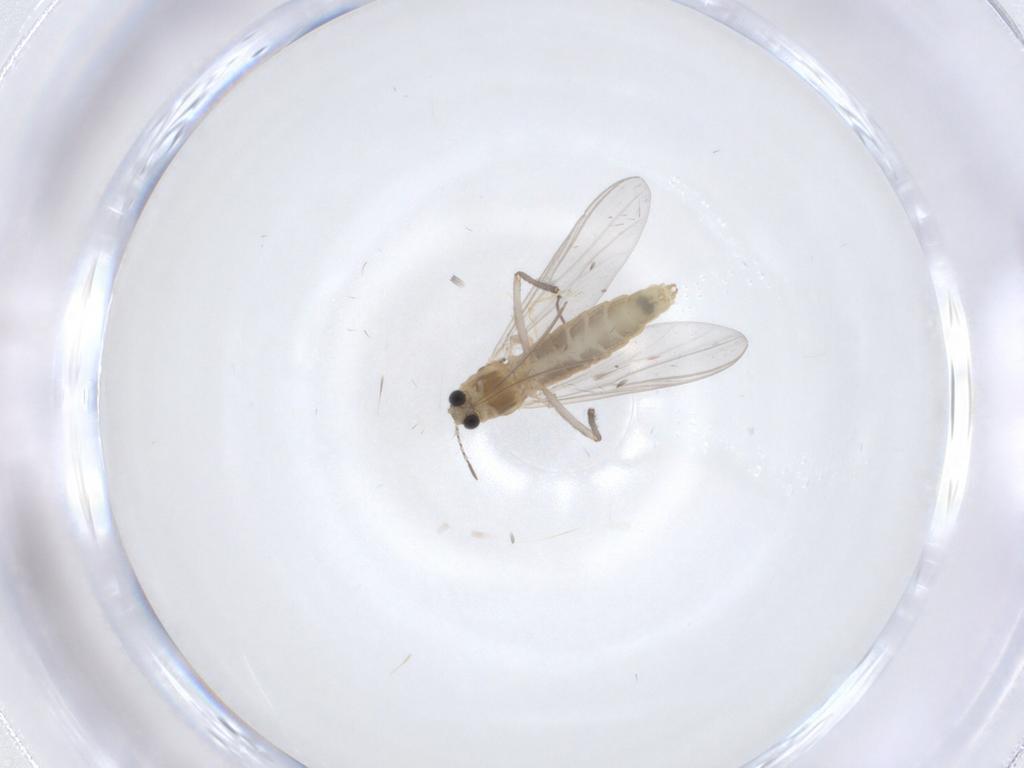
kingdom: Animalia
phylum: Arthropoda
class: Insecta
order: Diptera
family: Chironomidae
